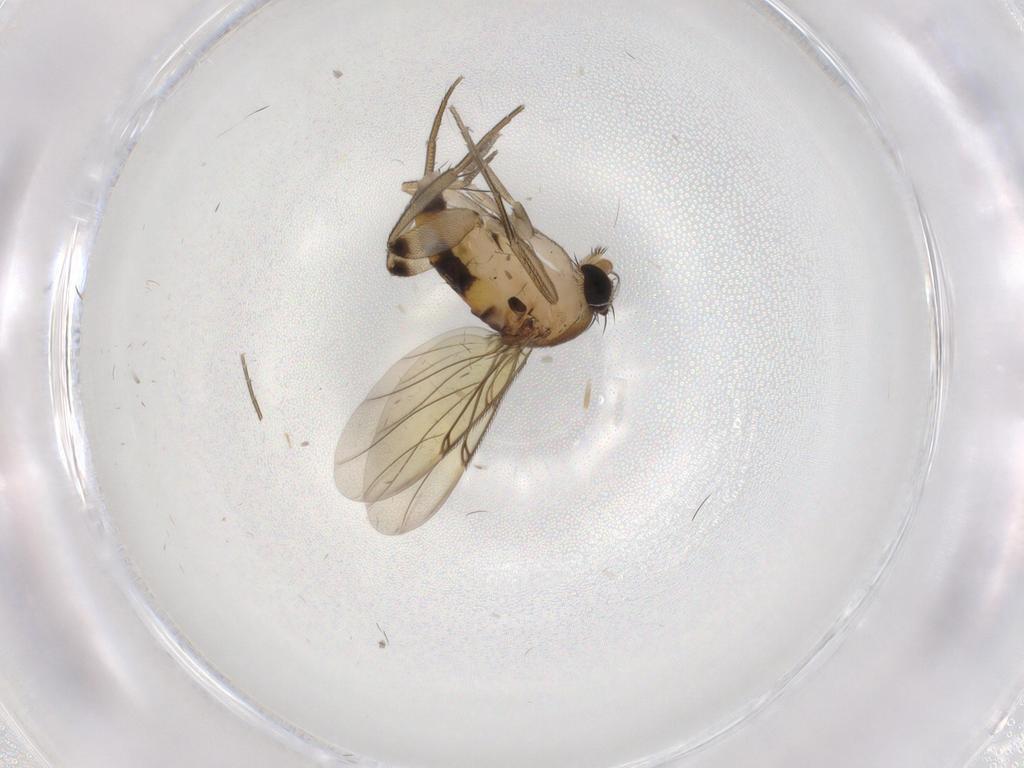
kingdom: Animalia
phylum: Arthropoda
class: Insecta
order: Diptera
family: Phoridae
